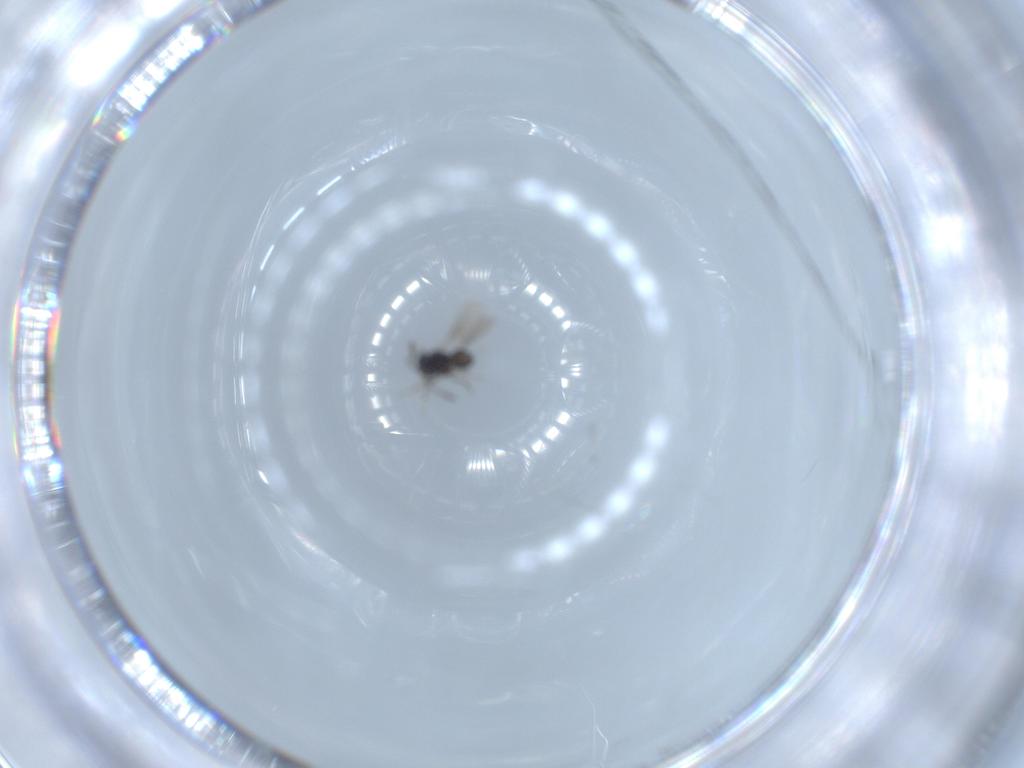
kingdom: Animalia
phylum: Arthropoda
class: Insecta
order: Hymenoptera
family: Scelionidae
